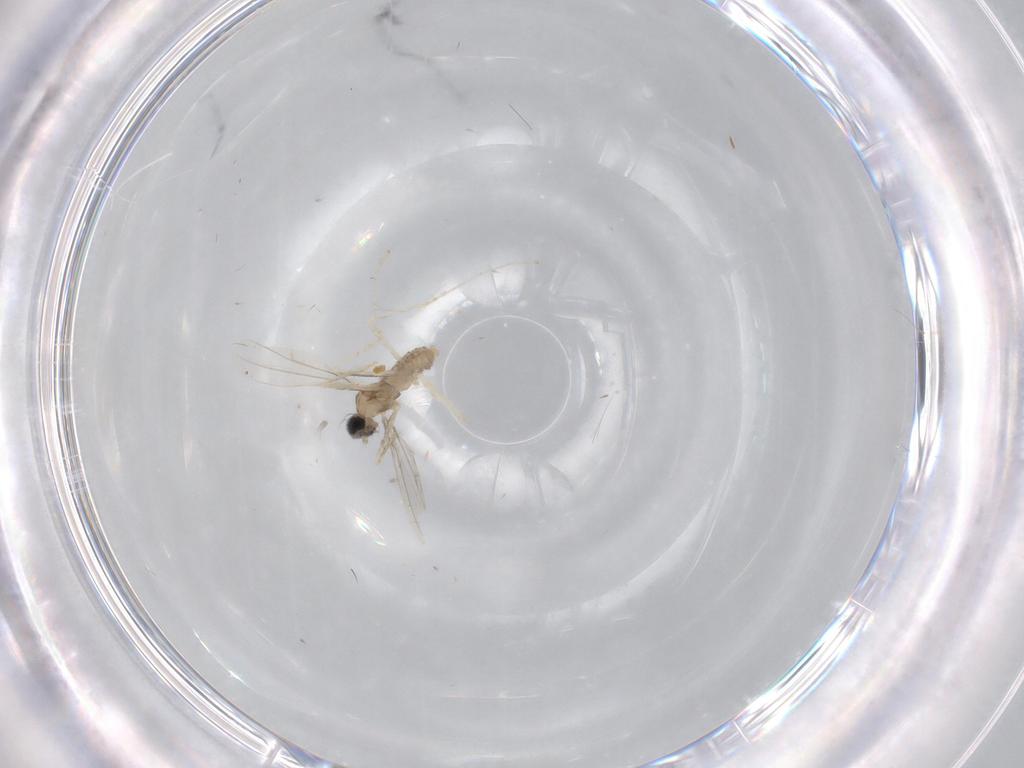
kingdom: Animalia
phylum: Arthropoda
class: Insecta
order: Diptera
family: Cecidomyiidae
